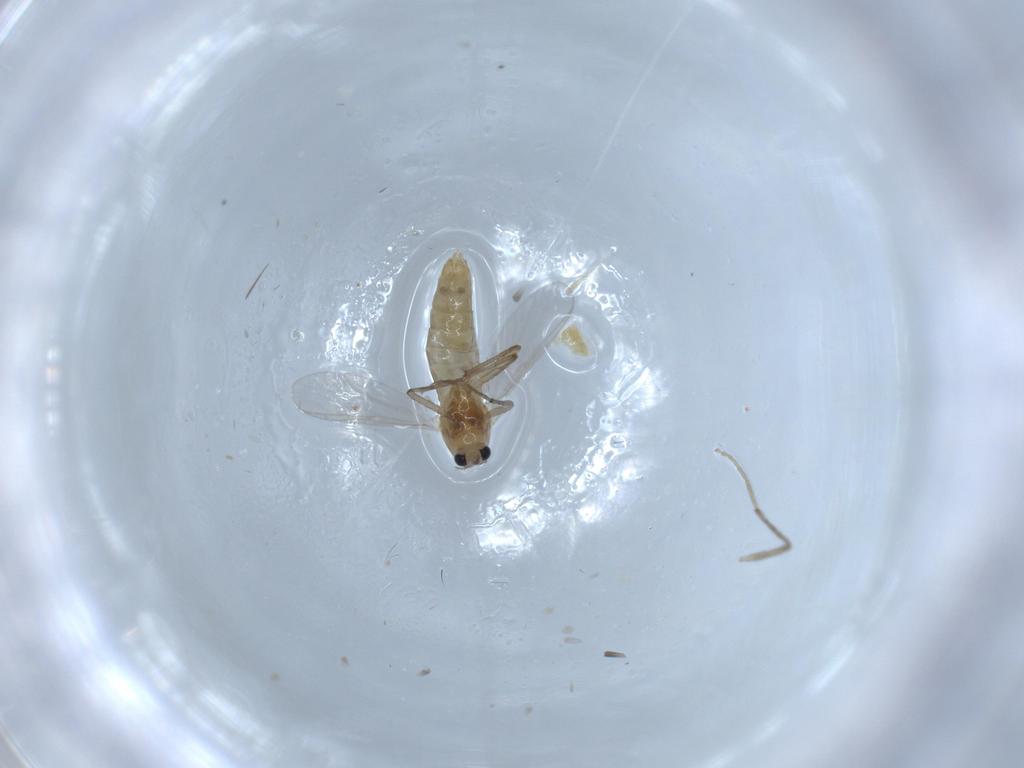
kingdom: Animalia
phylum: Arthropoda
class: Insecta
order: Diptera
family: Chironomidae
